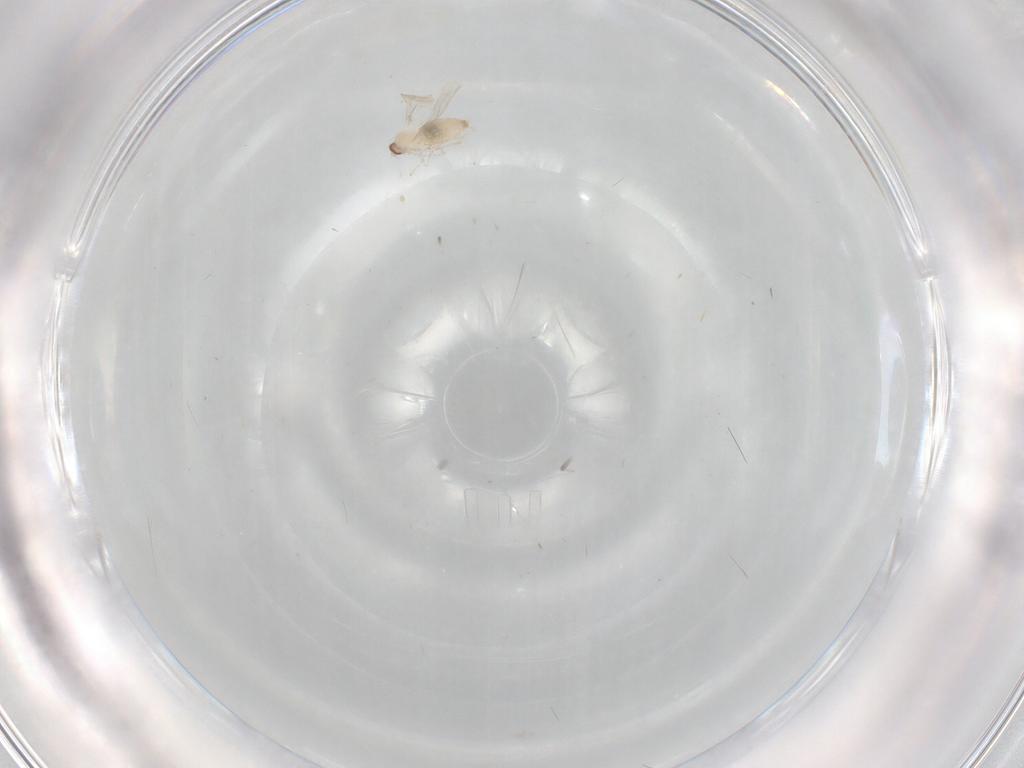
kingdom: Animalia
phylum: Arthropoda
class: Insecta
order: Diptera
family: Cecidomyiidae
